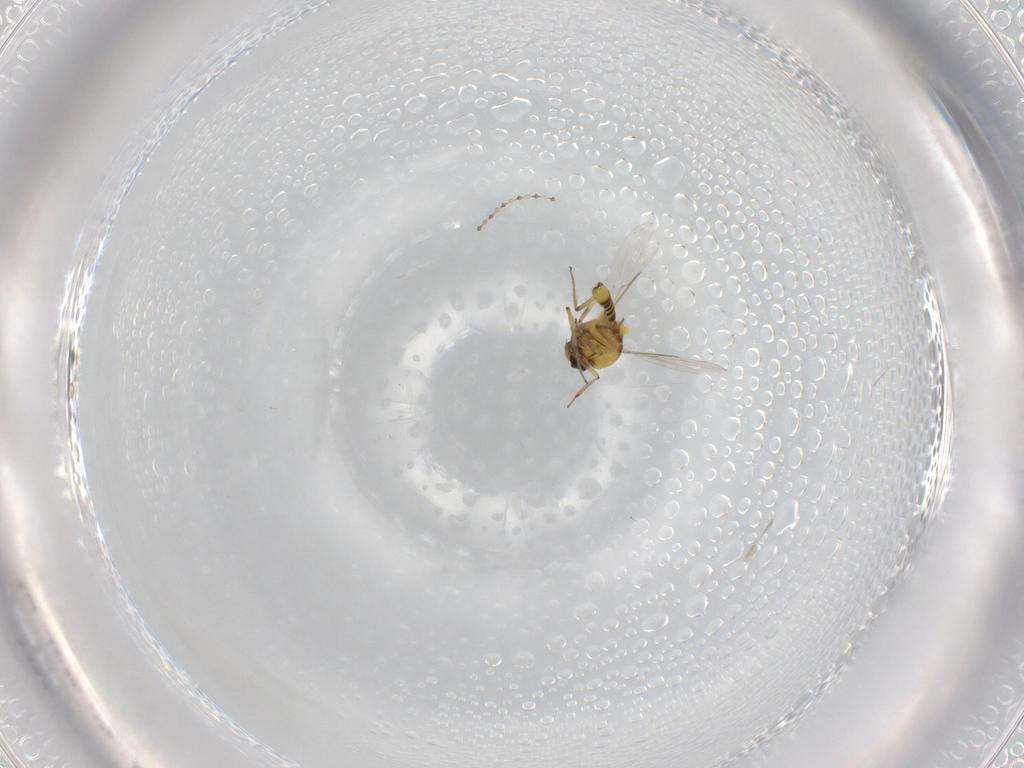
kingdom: Animalia
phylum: Arthropoda
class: Insecta
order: Diptera
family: Ceratopogonidae
